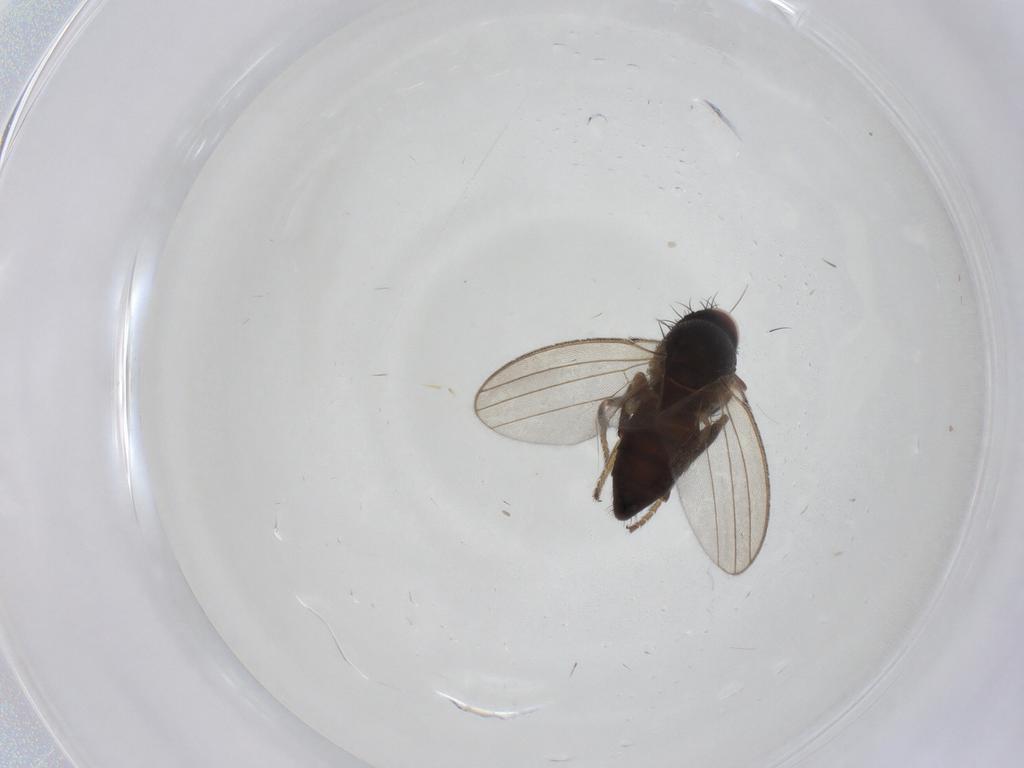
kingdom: Animalia
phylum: Arthropoda
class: Insecta
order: Diptera
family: Milichiidae
